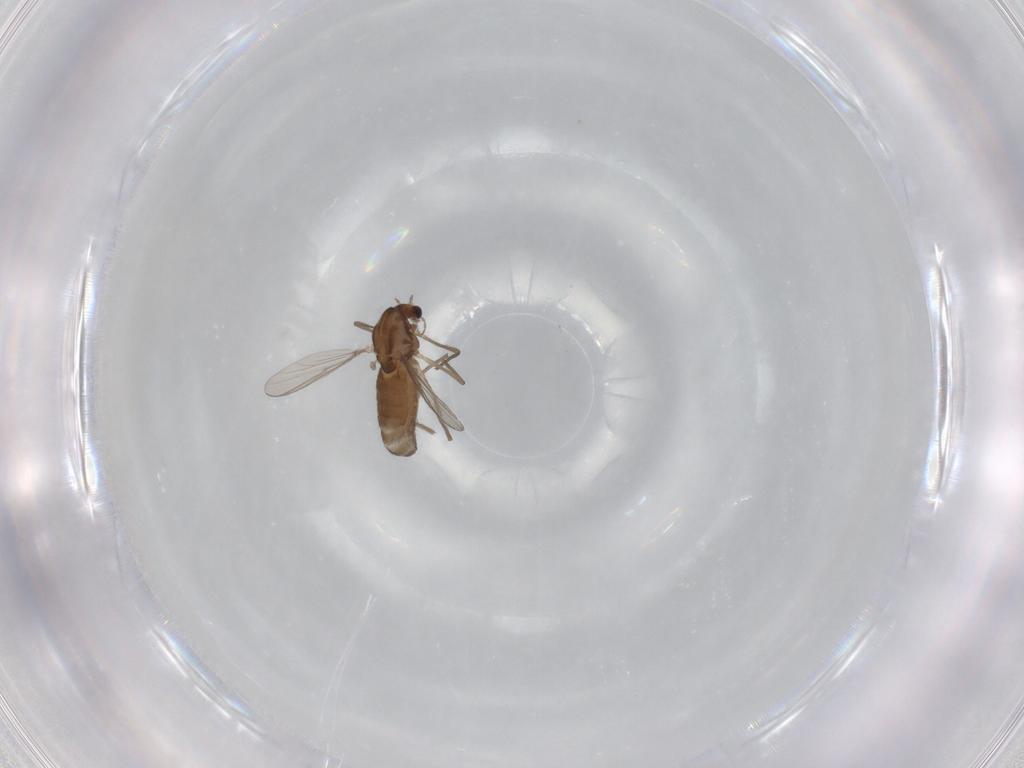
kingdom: Animalia
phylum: Arthropoda
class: Insecta
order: Diptera
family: Chironomidae
